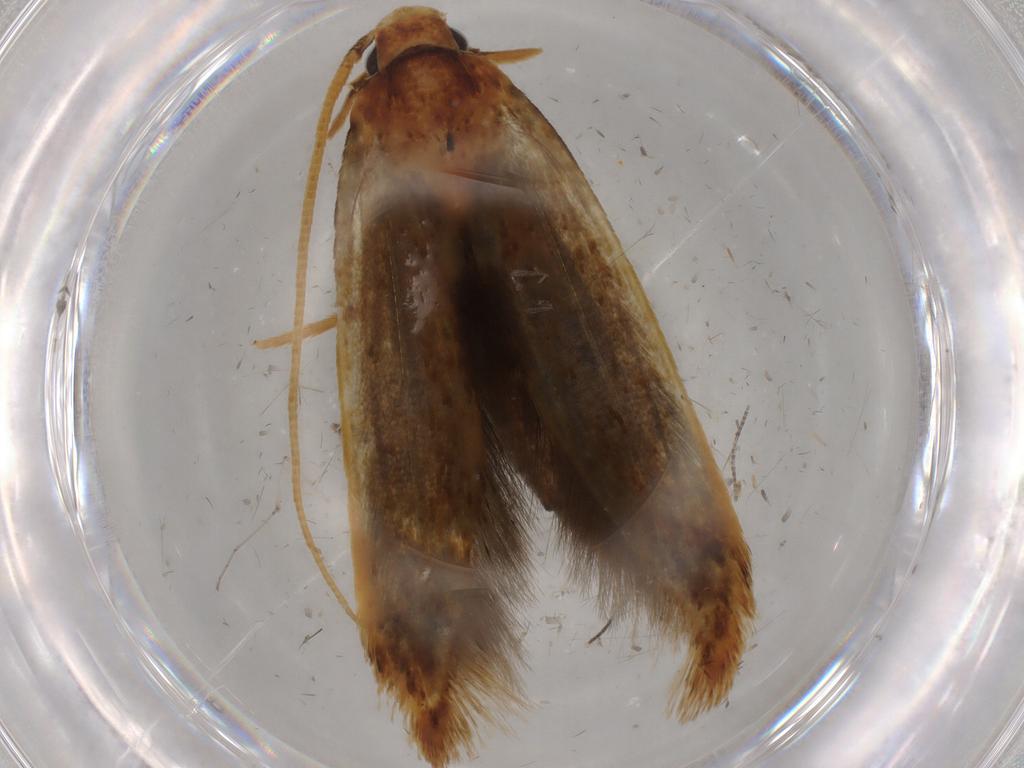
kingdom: Animalia
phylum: Arthropoda
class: Insecta
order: Lepidoptera
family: Tineidae
